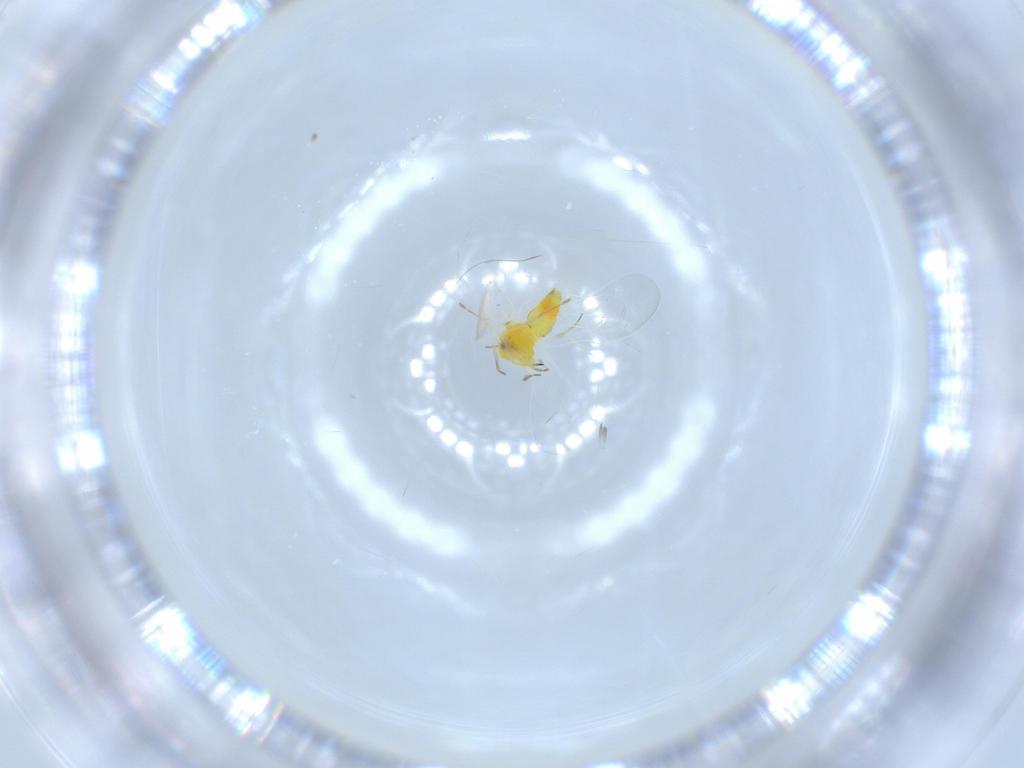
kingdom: Animalia
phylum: Arthropoda
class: Insecta
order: Hemiptera
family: Aleyrodidae
